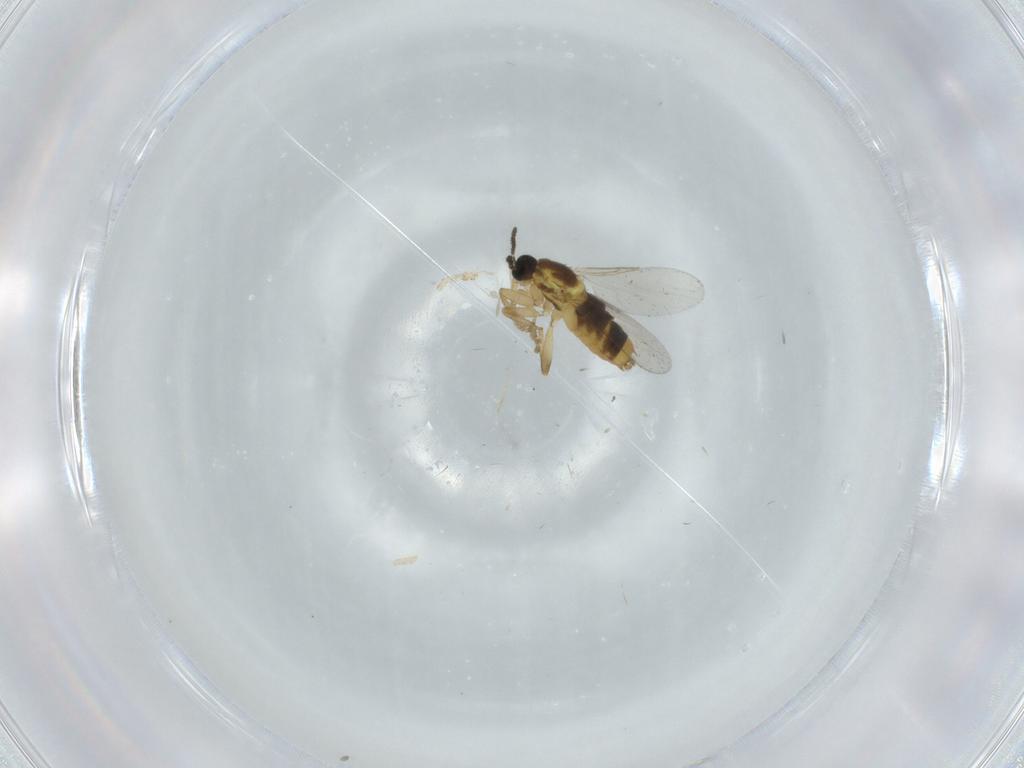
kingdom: Animalia
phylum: Arthropoda
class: Insecta
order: Diptera
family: Scatopsidae
